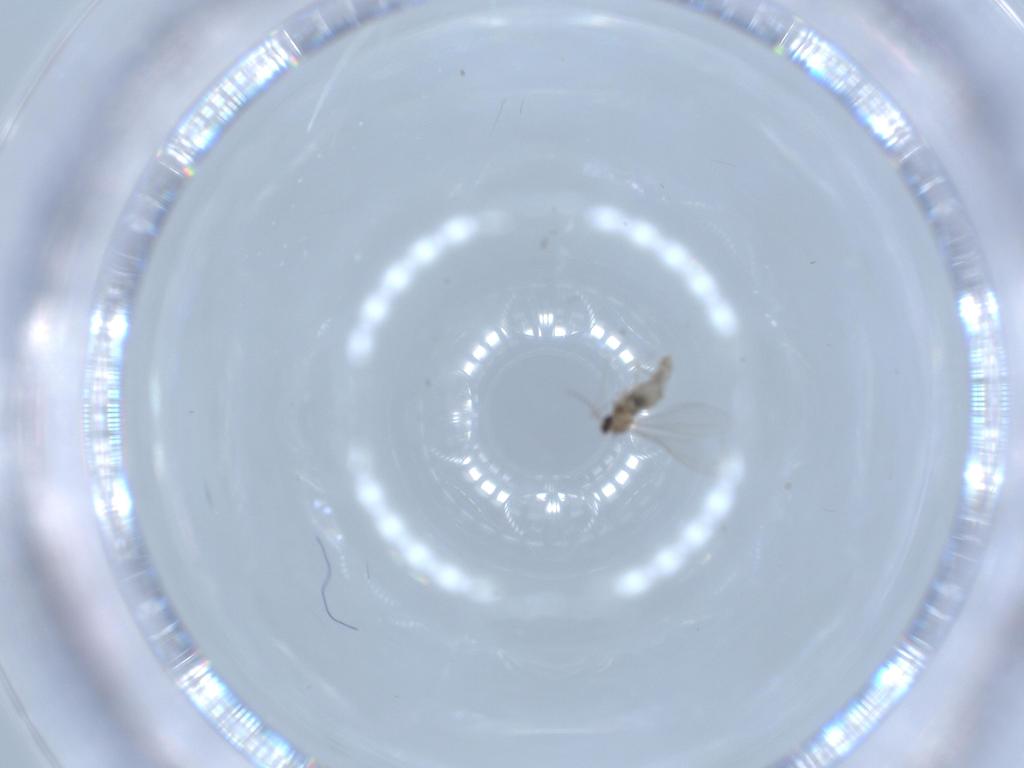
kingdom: Animalia
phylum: Arthropoda
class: Insecta
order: Diptera
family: Cecidomyiidae
